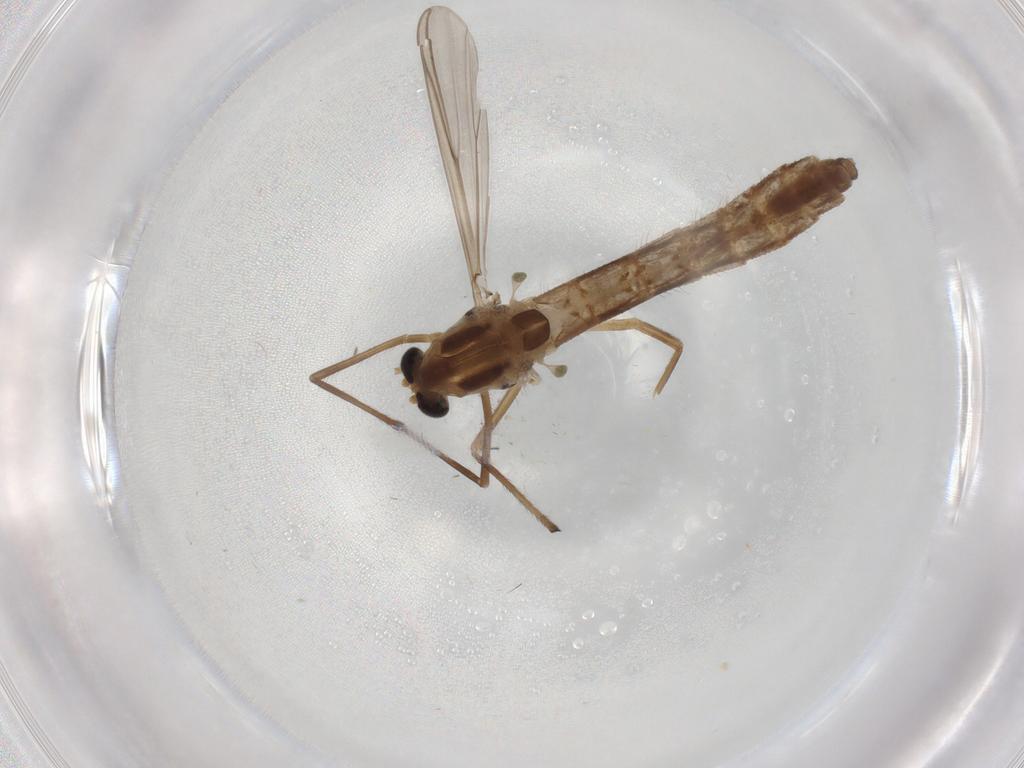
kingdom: Animalia
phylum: Arthropoda
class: Insecta
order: Diptera
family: Chironomidae
